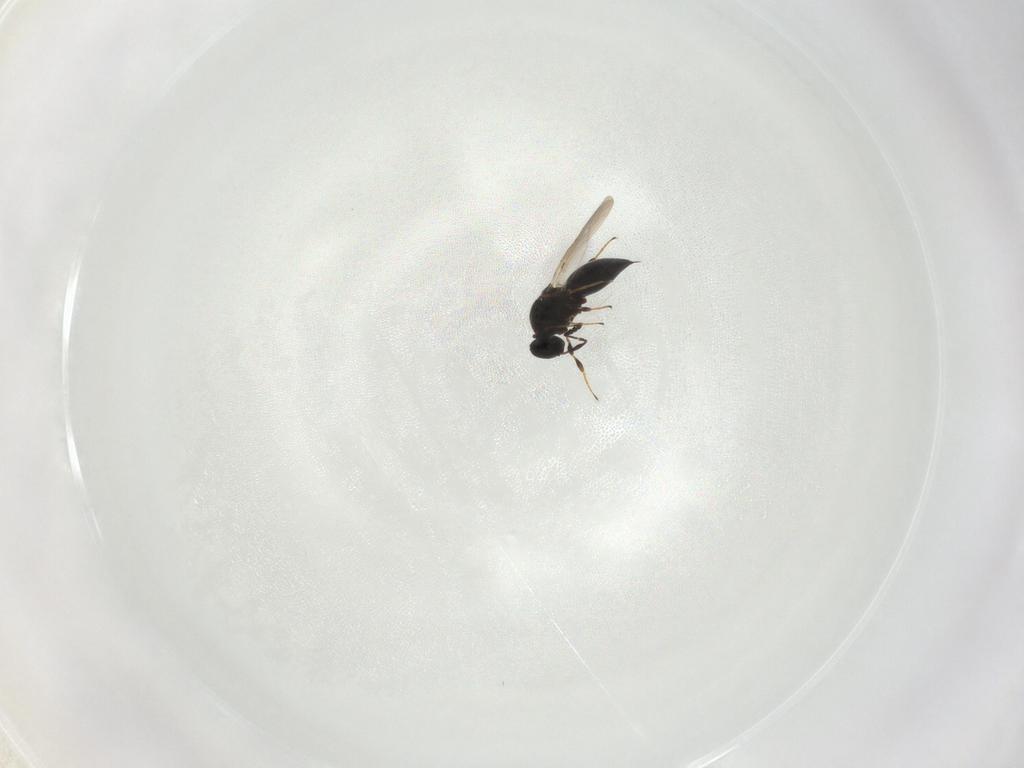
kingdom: Animalia
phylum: Arthropoda
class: Insecta
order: Hymenoptera
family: Platygastridae
